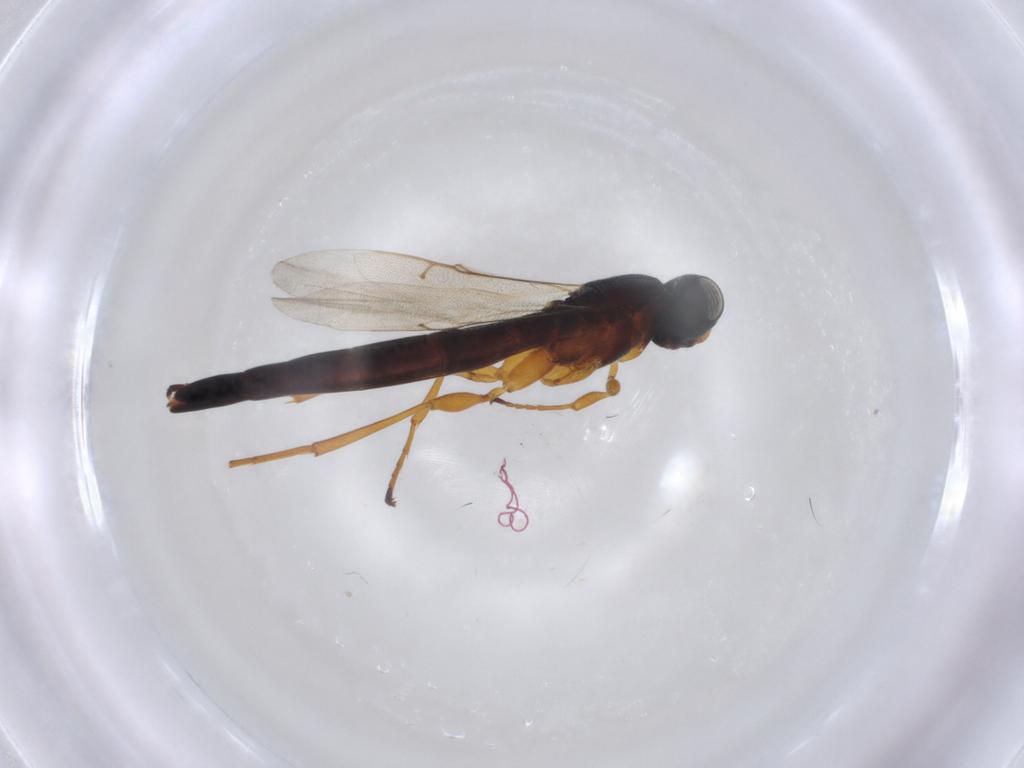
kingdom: Animalia
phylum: Arthropoda
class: Insecta
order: Hymenoptera
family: Scelionidae
